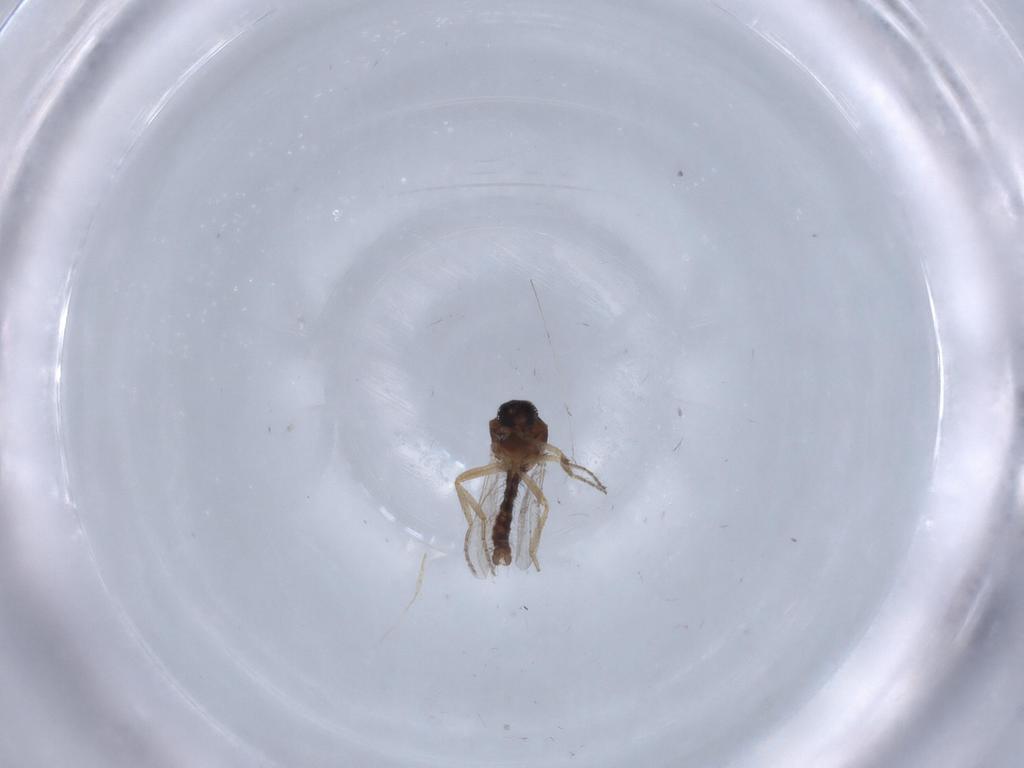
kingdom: Animalia
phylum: Arthropoda
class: Insecta
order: Diptera
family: Ceratopogonidae
